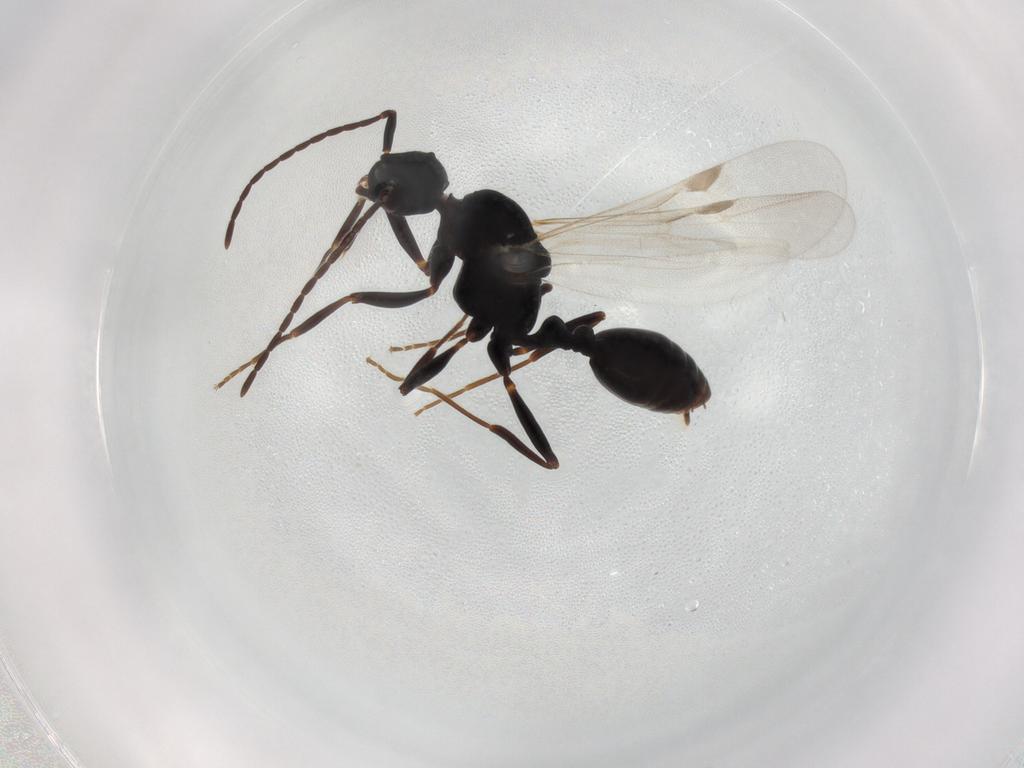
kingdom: Animalia
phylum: Arthropoda
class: Insecta
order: Hymenoptera
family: Formicidae
